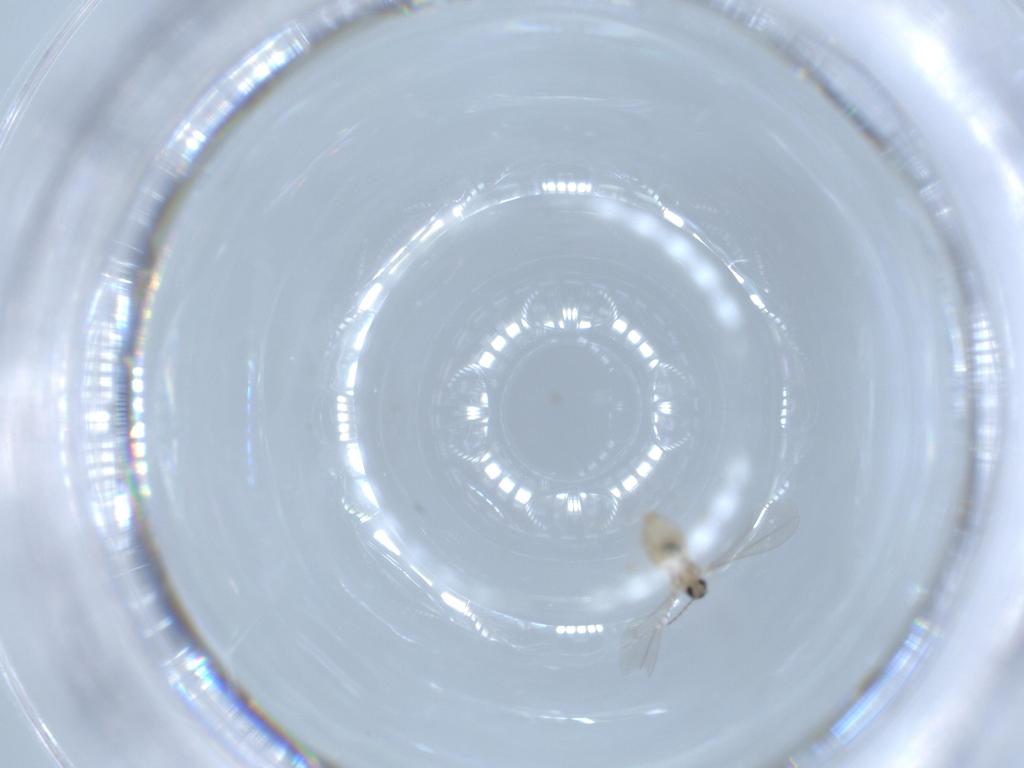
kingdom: Animalia
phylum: Arthropoda
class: Insecta
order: Diptera
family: Cecidomyiidae
